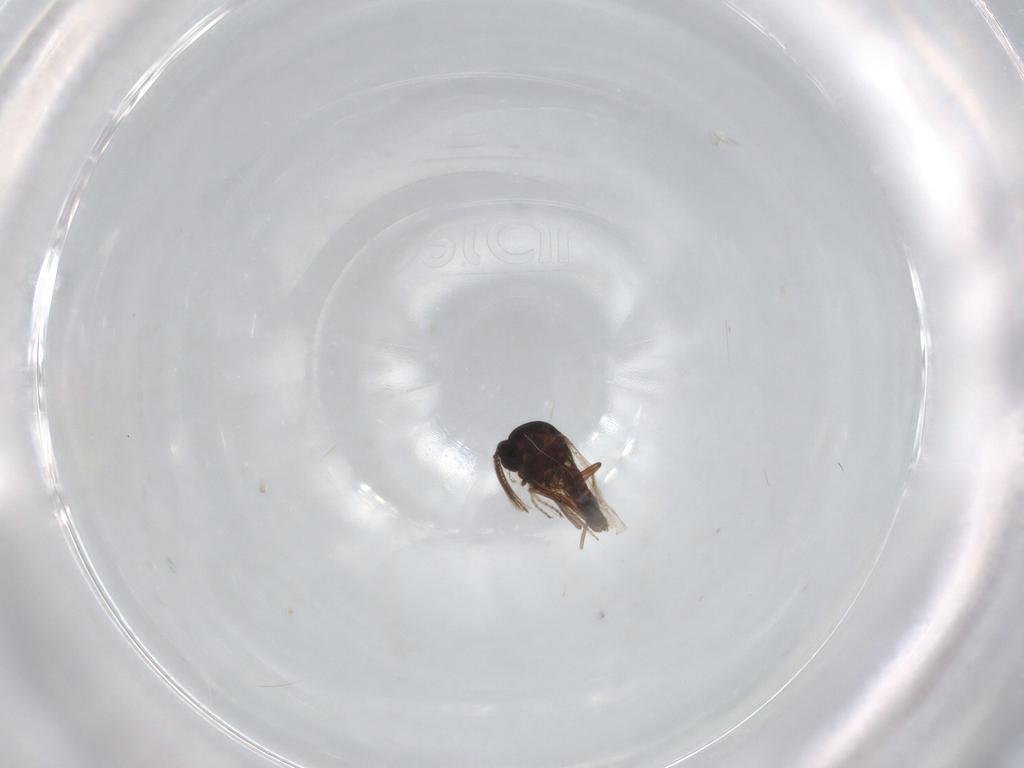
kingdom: Animalia
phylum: Arthropoda
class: Insecta
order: Diptera
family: Ceratopogonidae
